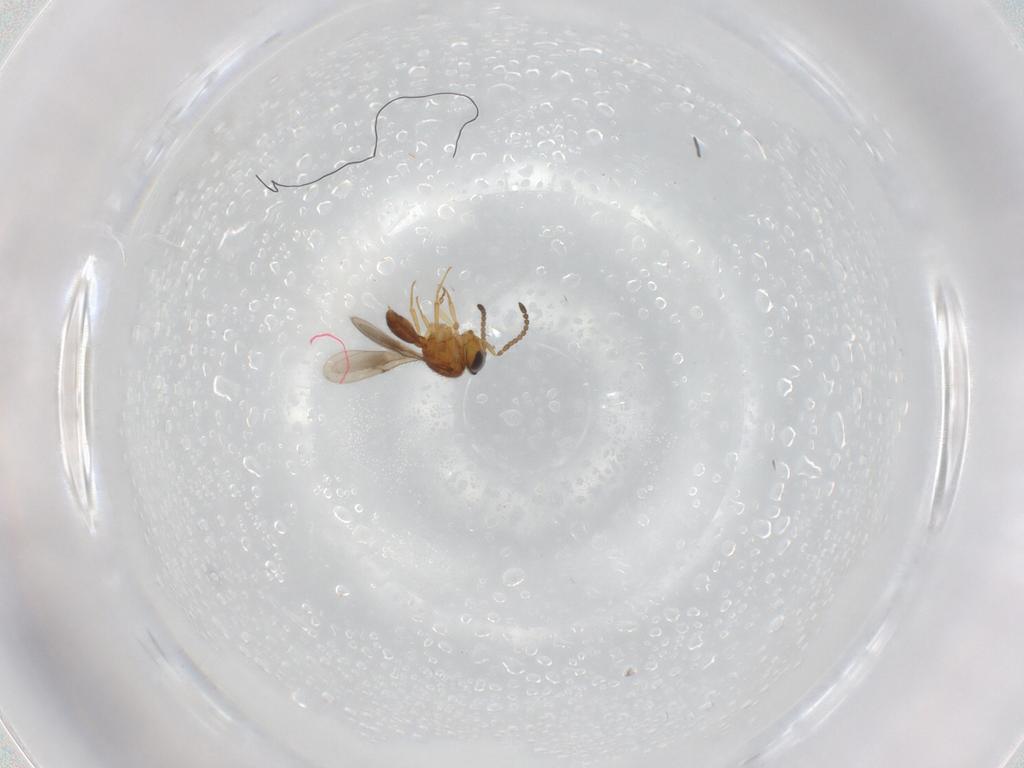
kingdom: Animalia
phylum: Arthropoda
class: Insecta
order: Hymenoptera
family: Scelionidae
